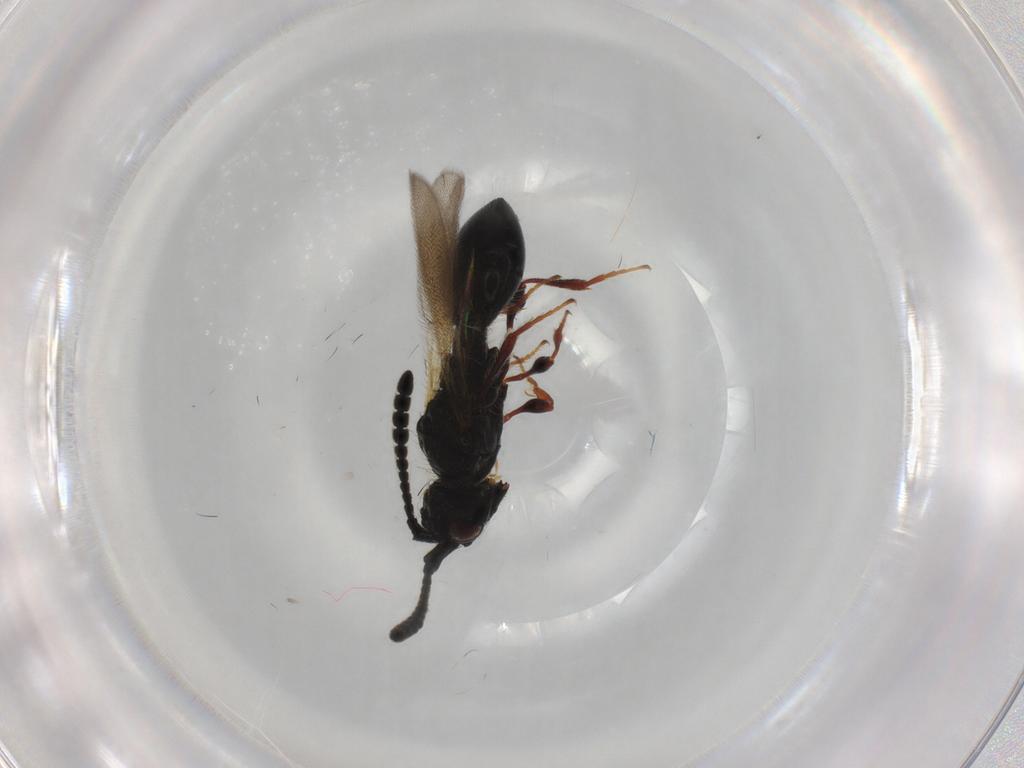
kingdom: Animalia
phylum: Arthropoda
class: Insecta
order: Hymenoptera
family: Diapriidae
